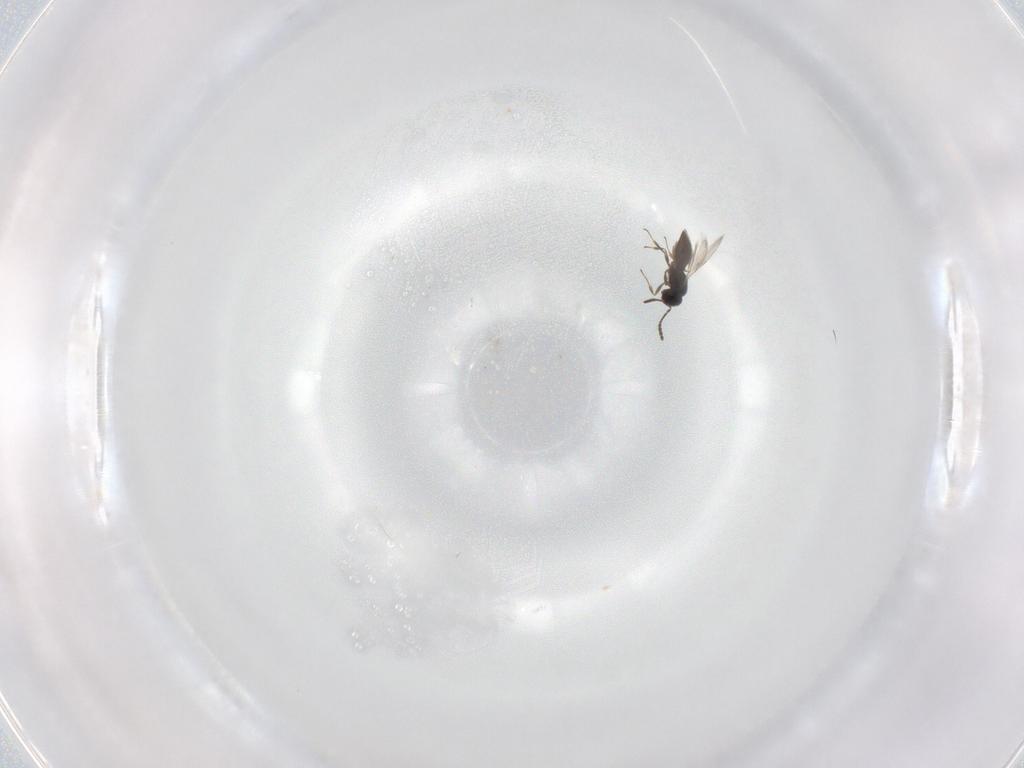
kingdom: Animalia
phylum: Arthropoda
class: Insecta
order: Hymenoptera
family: Scelionidae
